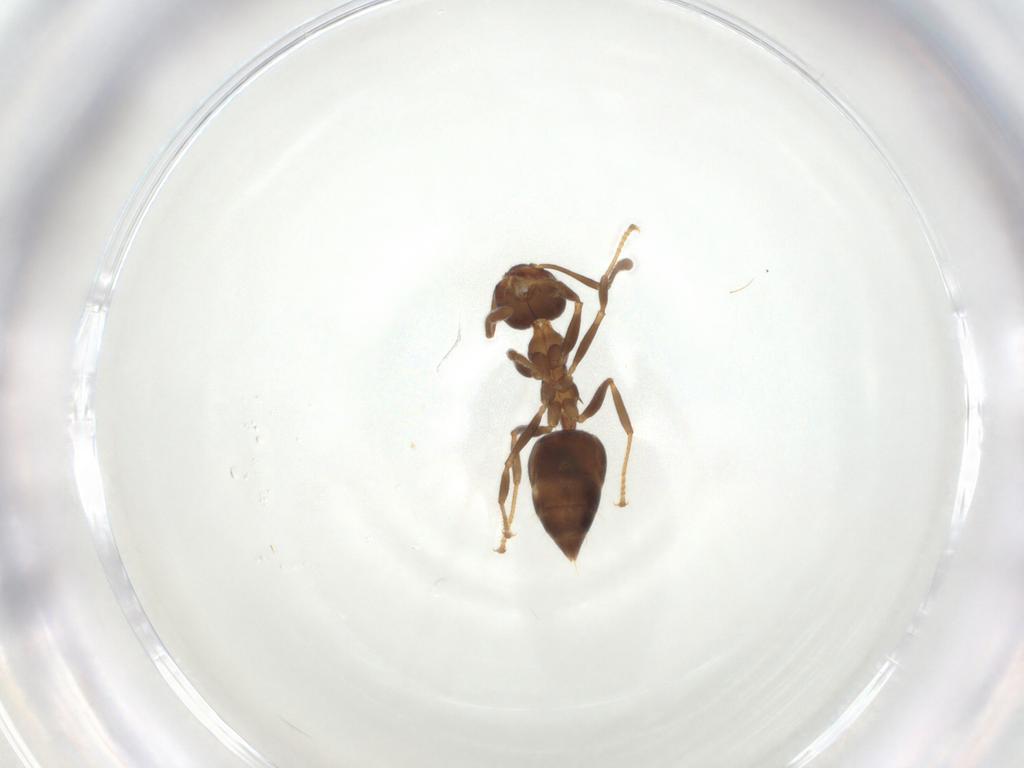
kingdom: Animalia
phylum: Arthropoda
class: Insecta
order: Hymenoptera
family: Formicidae
